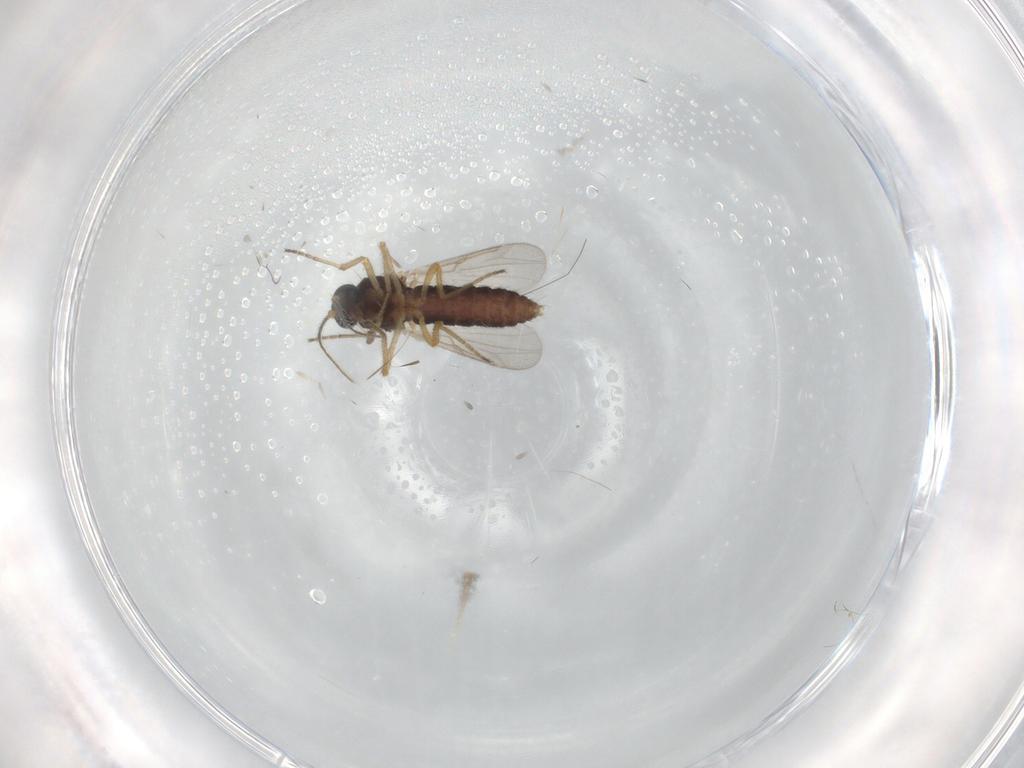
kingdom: Animalia
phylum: Arthropoda
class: Insecta
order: Diptera
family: Ceratopogonidae
